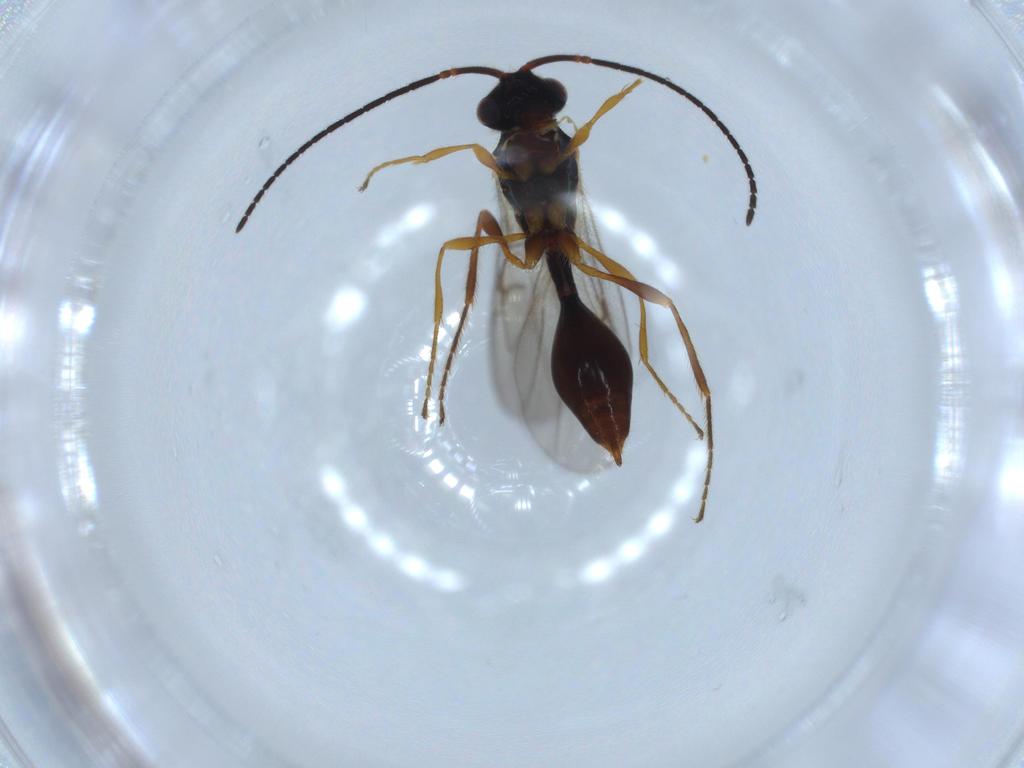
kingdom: Animalia
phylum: Arthropoda
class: Insecta
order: Hymenoptera
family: Diapriidae
